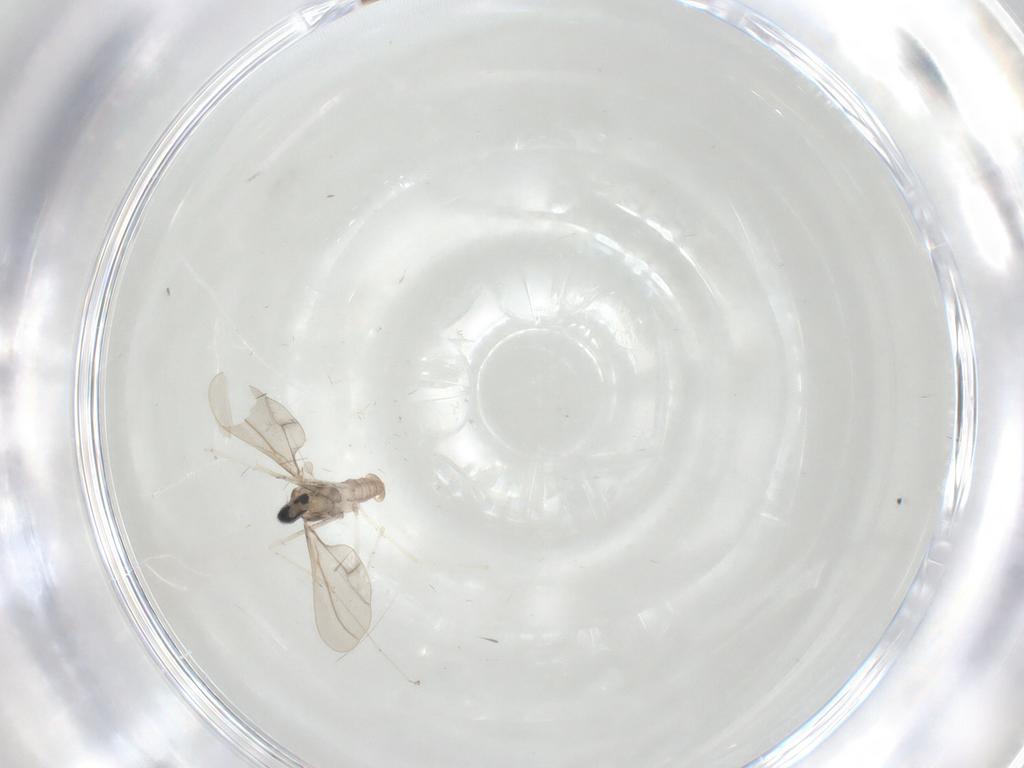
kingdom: Animalia
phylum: Arthropoda
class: Insecta
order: Diptera
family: Cecidomyiidae
